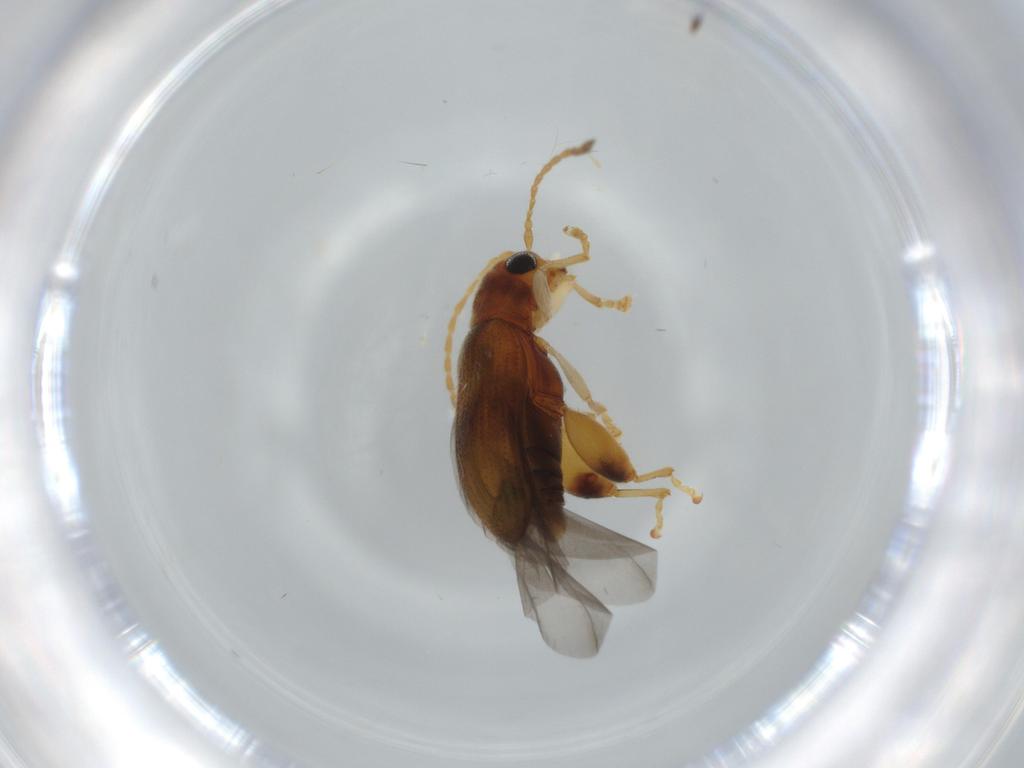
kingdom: Animalia
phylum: Arthropoda
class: Insecta
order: Coleoptera
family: Chrysomelidae
